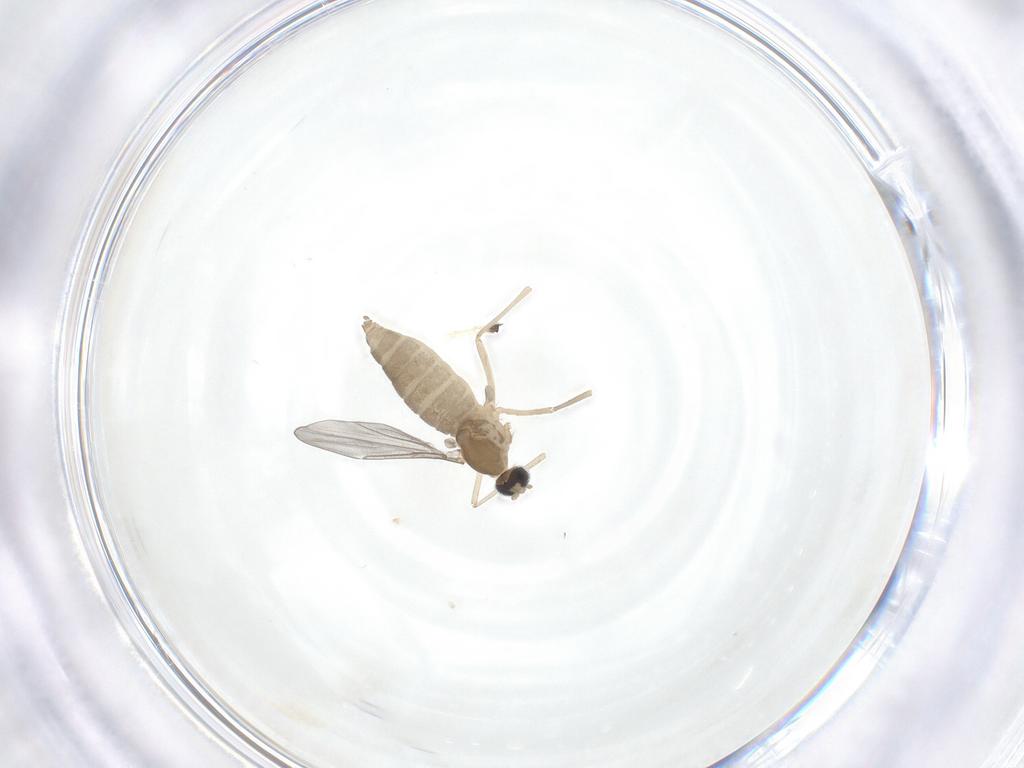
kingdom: Animalia
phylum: Arthropoda
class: Insecta
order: Diptera
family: Cecidomyiidae
